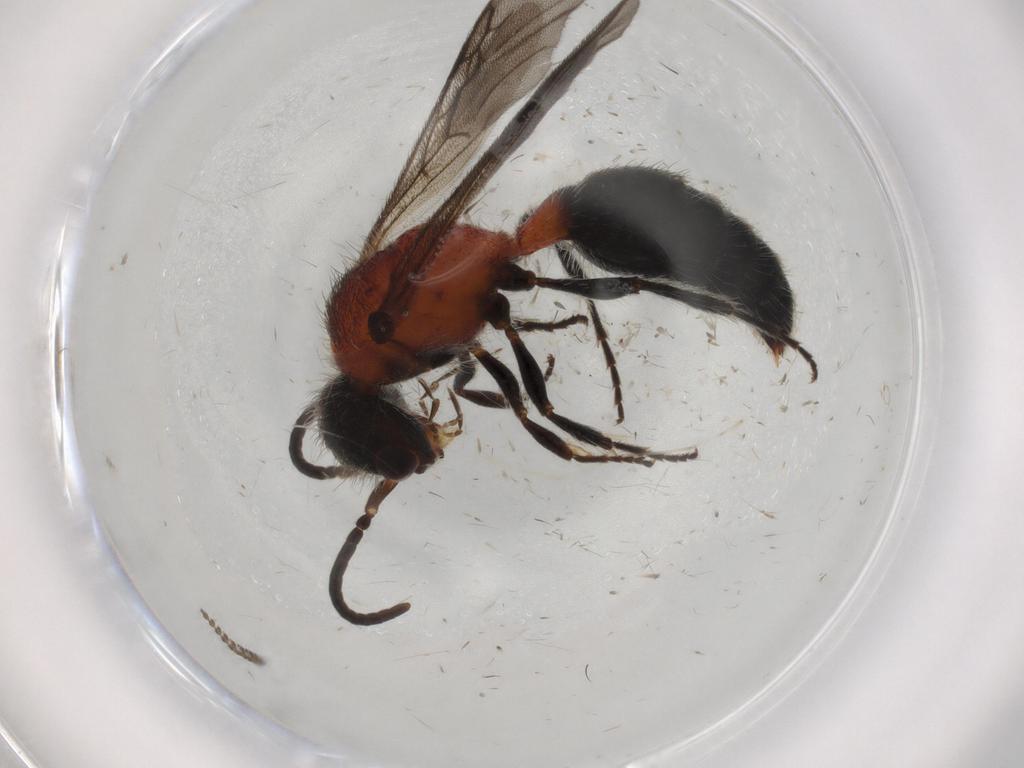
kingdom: Animalia
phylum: Arthropoda
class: Insecta
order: Hymenoptera
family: Mutillidae
